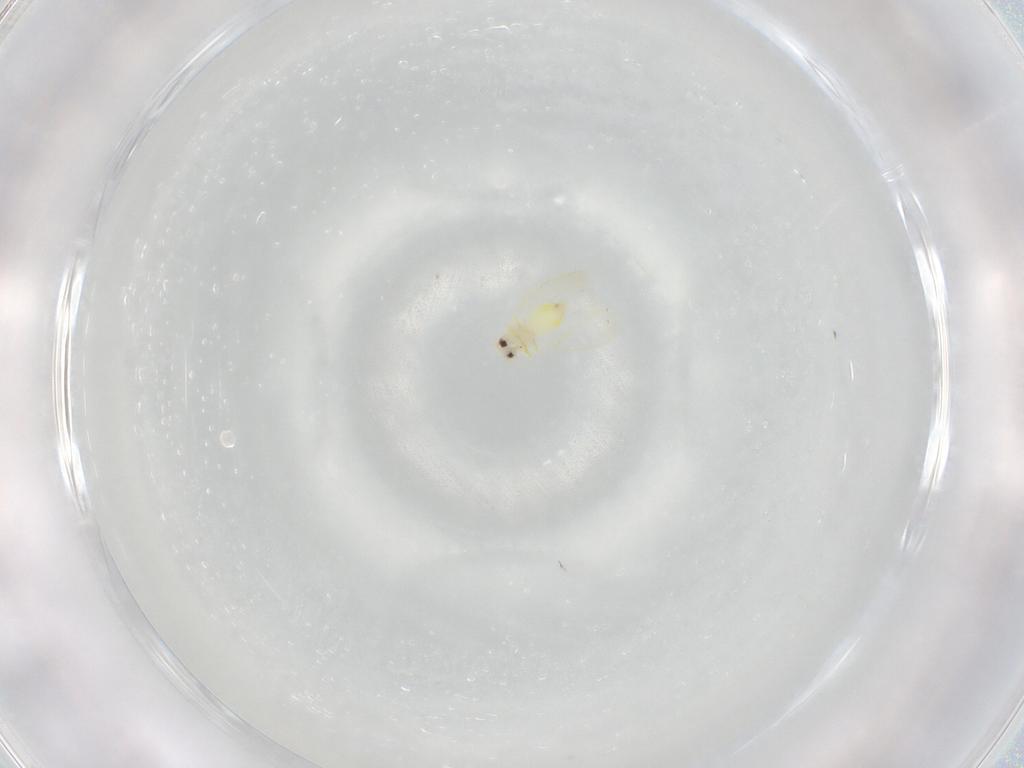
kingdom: Animalia
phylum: Arthropoda
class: Insecta
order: Hemiptera
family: Aleyrodidae
